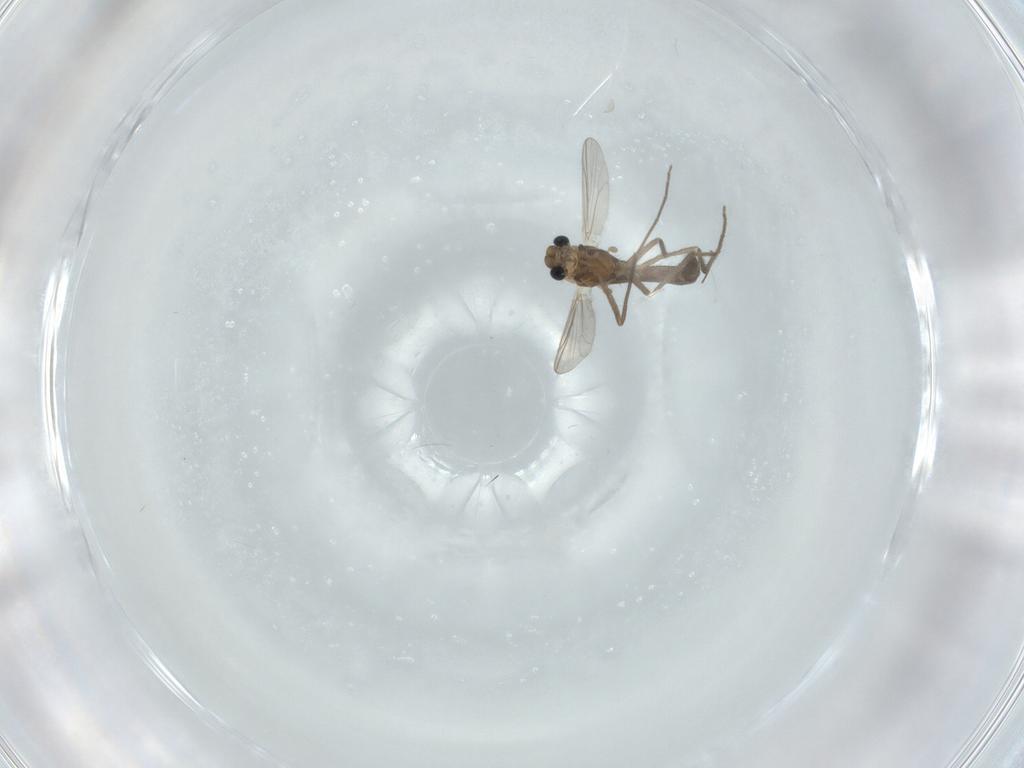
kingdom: Animalia
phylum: Arthropoda
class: Insecta
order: Diptera
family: Chironomidae
